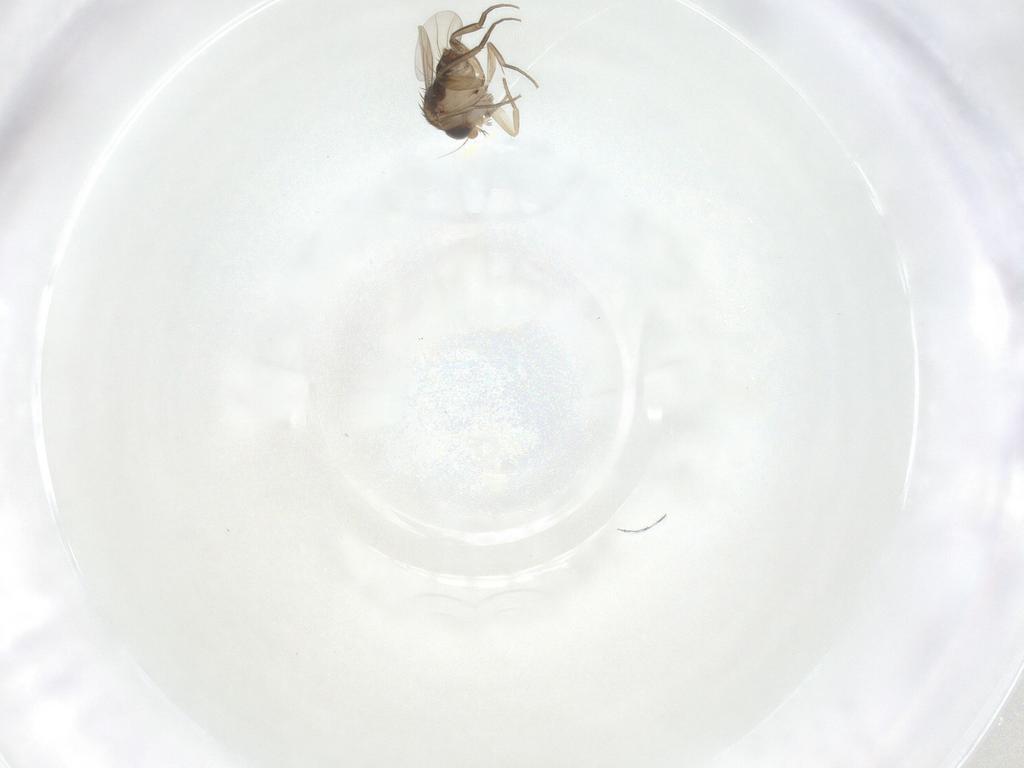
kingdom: Animalia
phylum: Arthropoda
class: Insecta
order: Diptera
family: Phoridae
